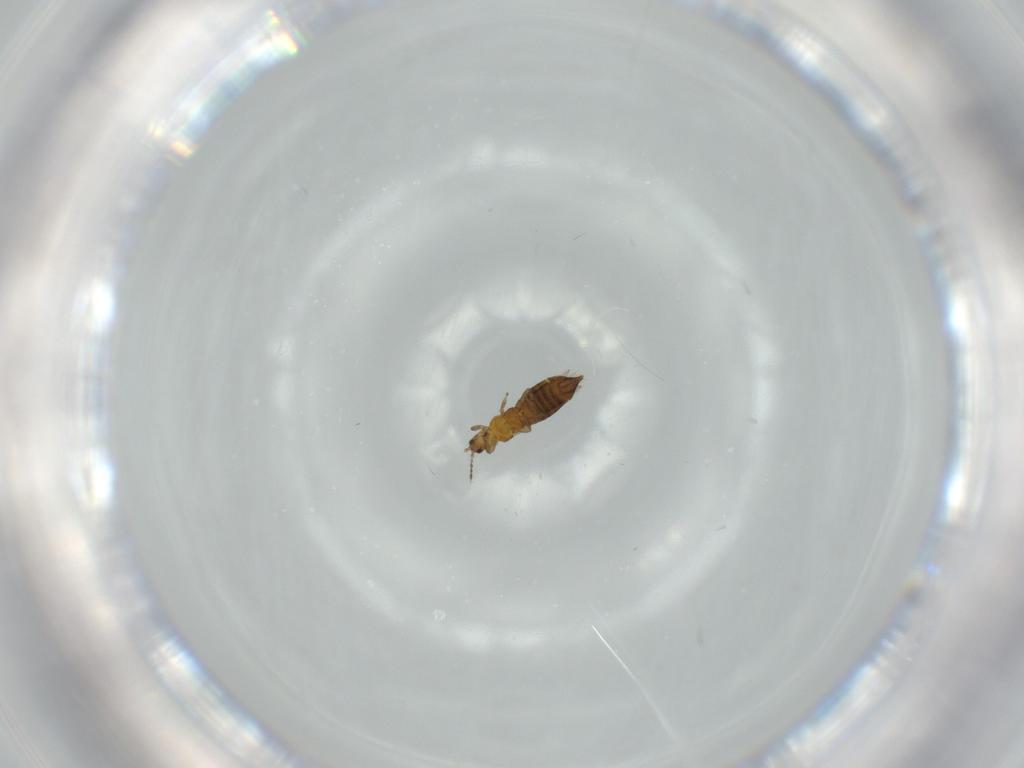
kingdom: Animalia
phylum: Arthropoda
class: Insecta
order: Thysanoptera
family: Thripidae
